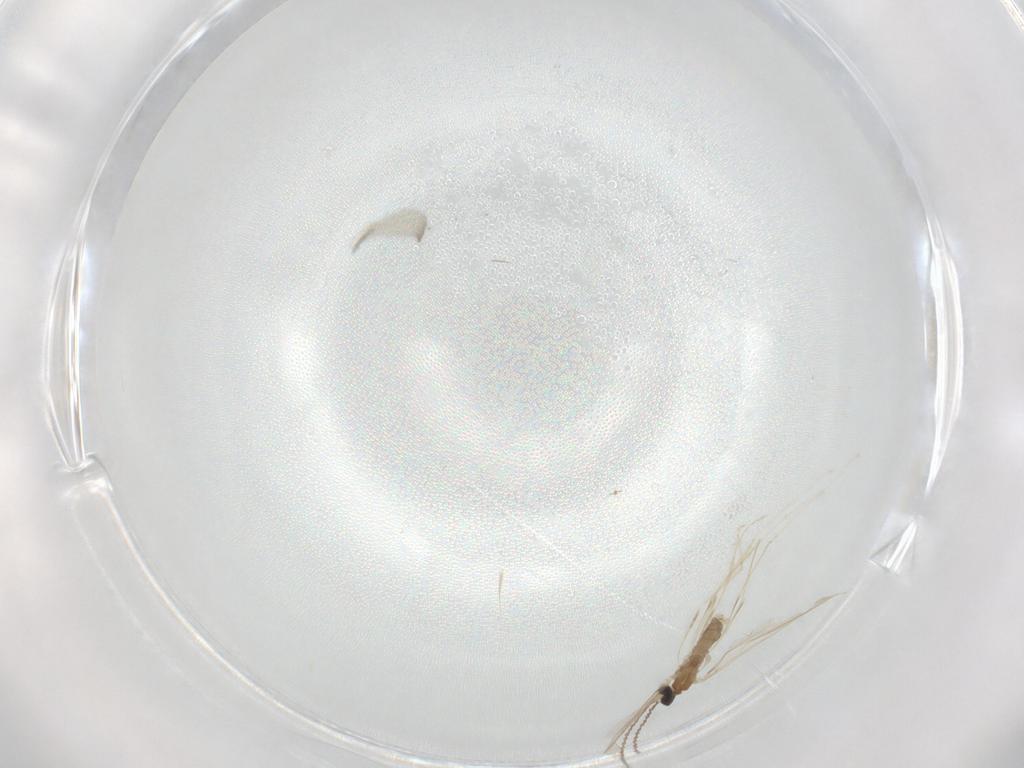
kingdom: Animalia
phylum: Arthropoda
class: Insecta
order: Diptera
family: Cecidomyiidae
